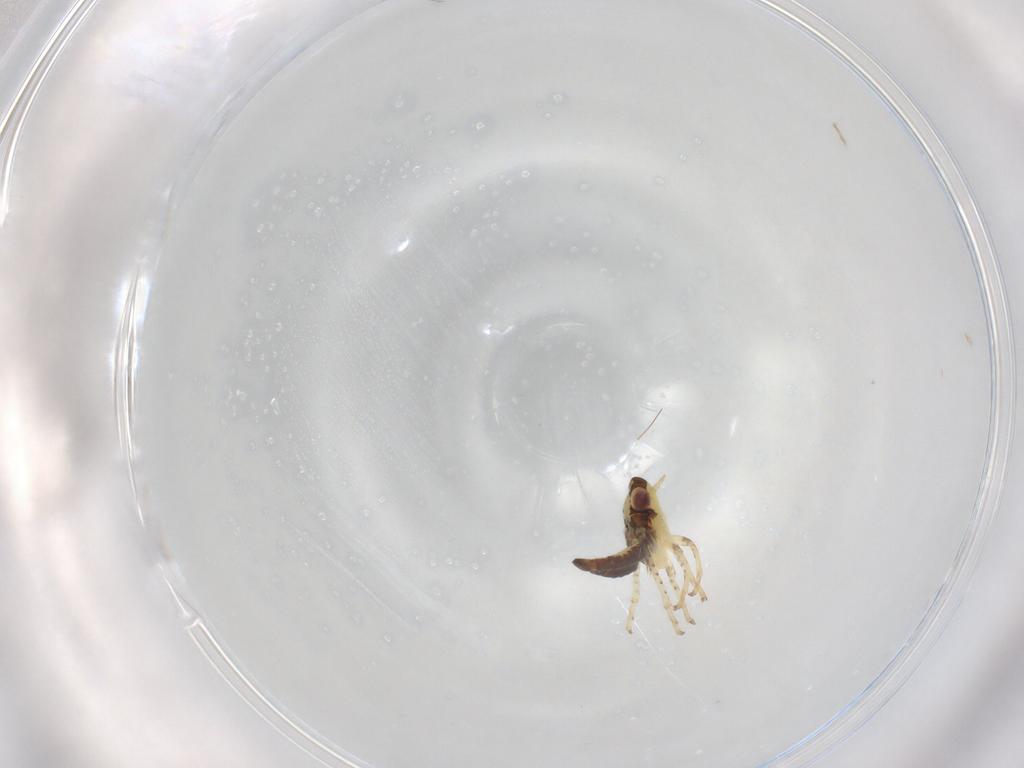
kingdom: Animalia
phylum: Arthropoda
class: Insecta
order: Hemiptera
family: Cicadellidae
